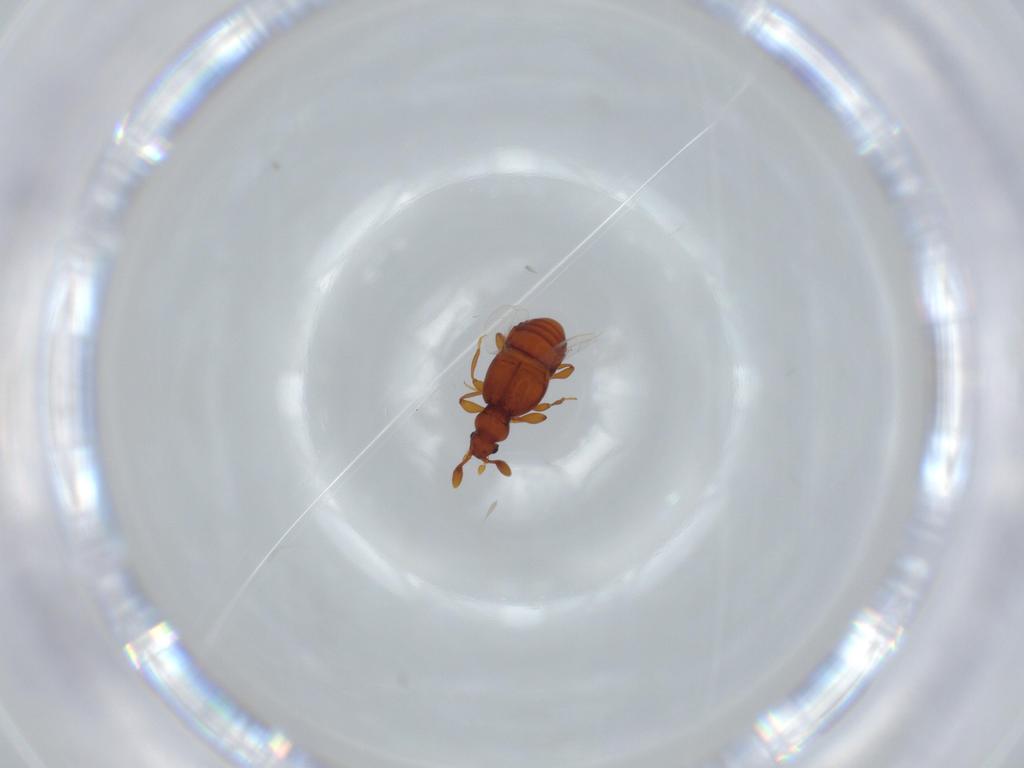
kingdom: Animalia
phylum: Arthropoda
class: Insecta
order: Coleoptera
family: Staphylinidae
